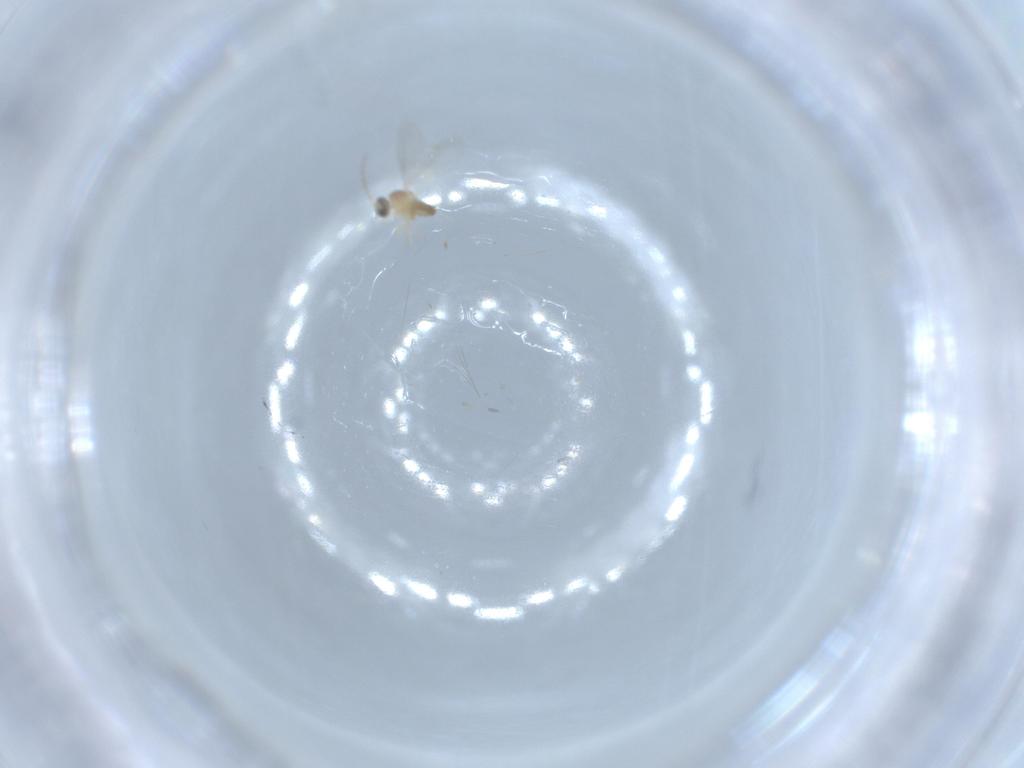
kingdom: Animalia
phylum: Arthropoda
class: Insecta
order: Diptera
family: Cecidomyiidae
